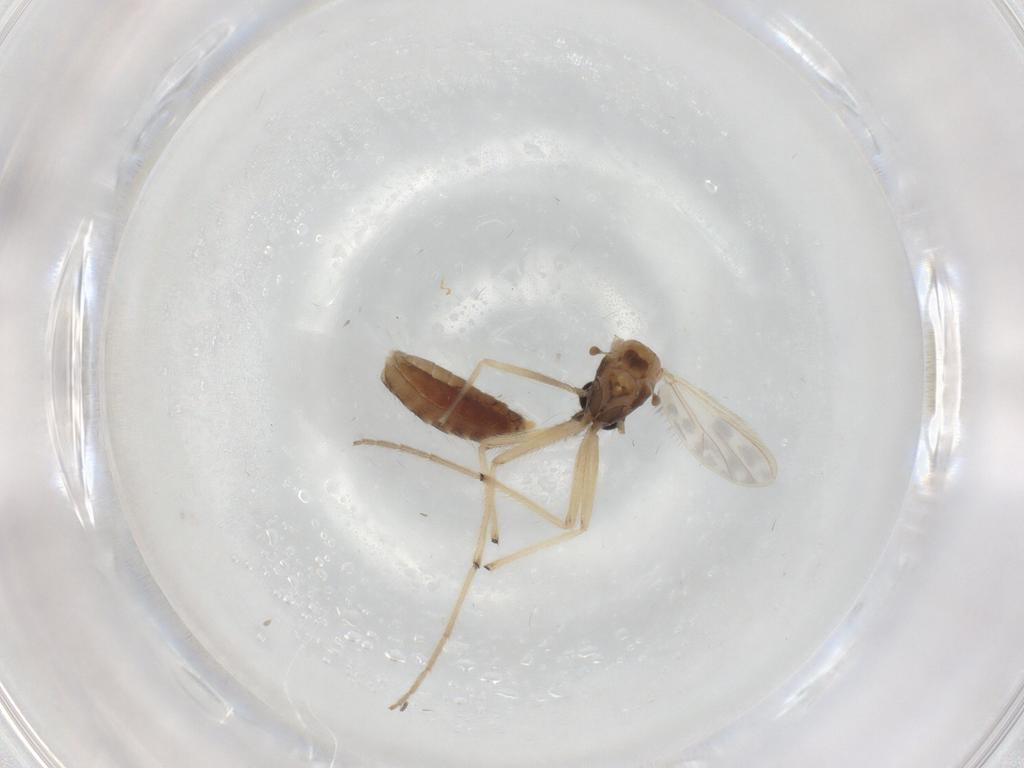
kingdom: Animalia
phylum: Arthropoda
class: Insecta
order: Diptera
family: Chironomidae
